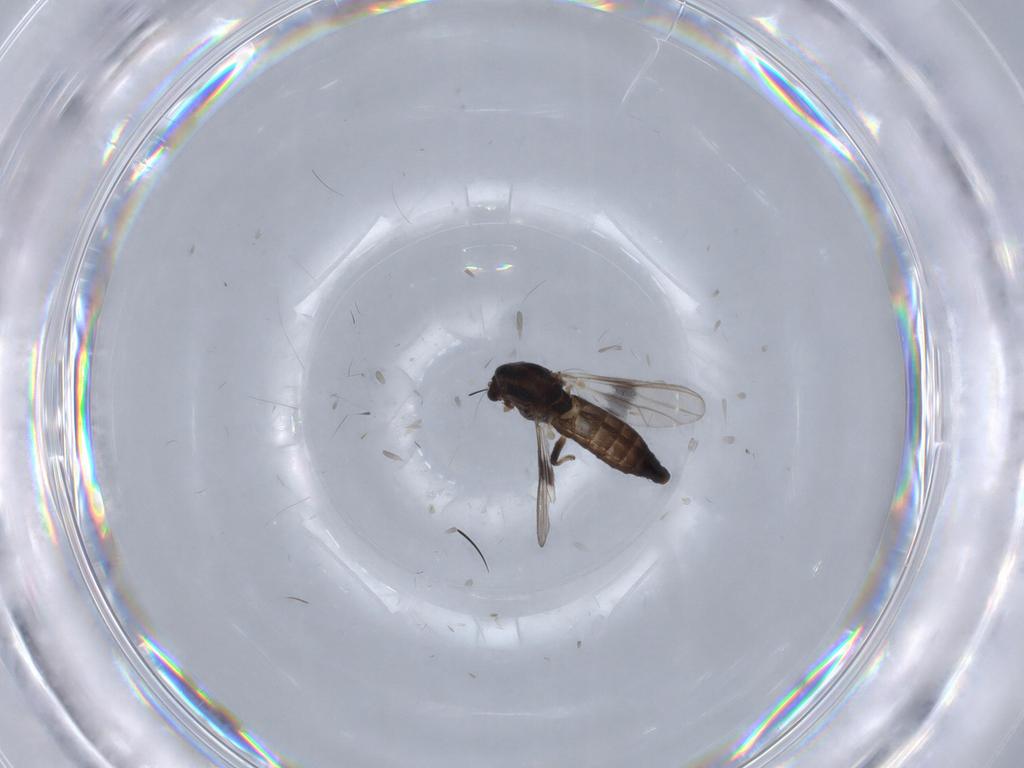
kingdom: Animalia
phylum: Arthropoda
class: Insecta
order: Diptera
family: Chironomidae
